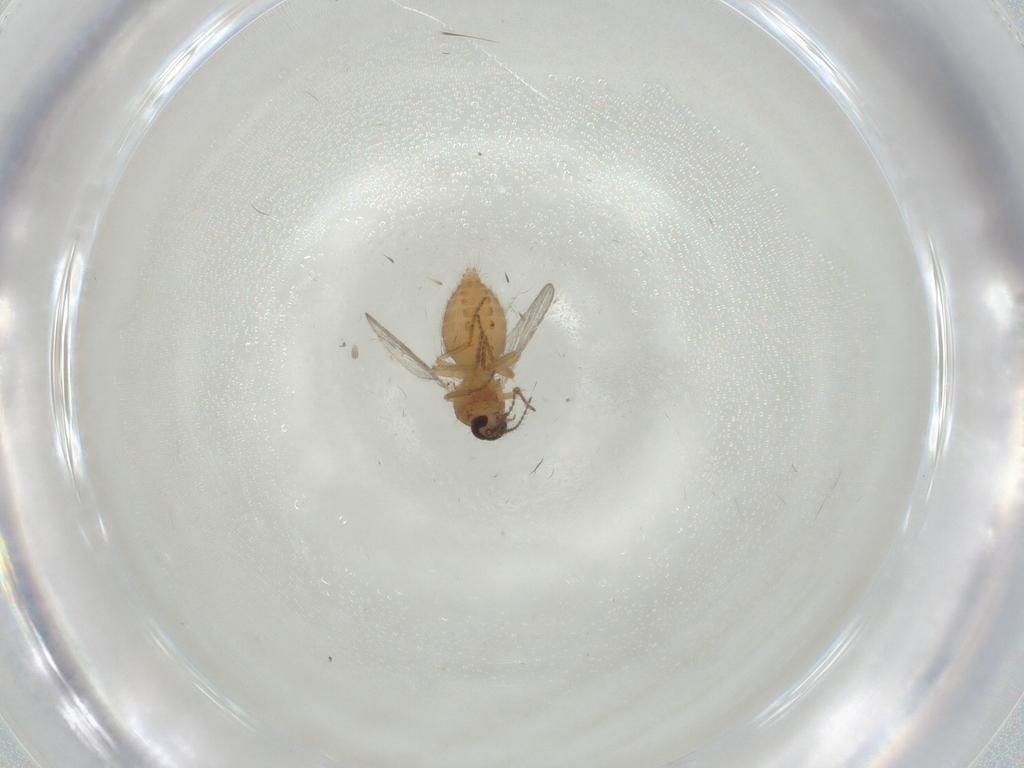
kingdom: Animalia
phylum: Arthropoda
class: Insecta
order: Diptera
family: Ceratopogonidae
